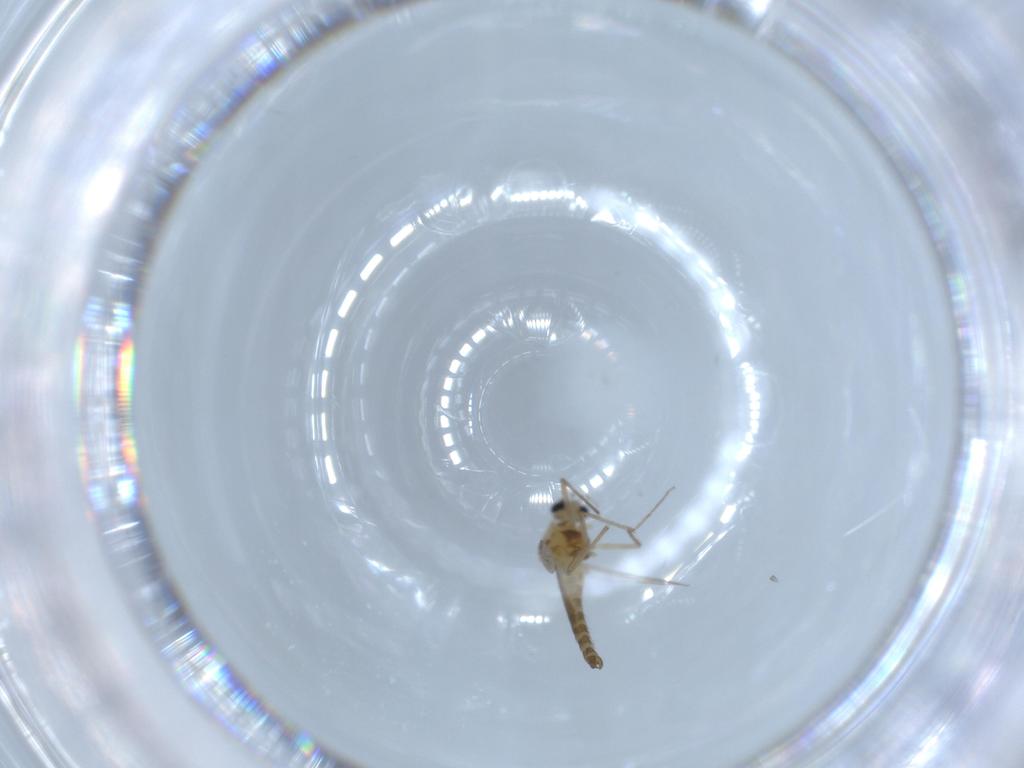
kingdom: Animalia
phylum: Arthropoda
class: Insecta
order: Diptera
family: Chironomidae
